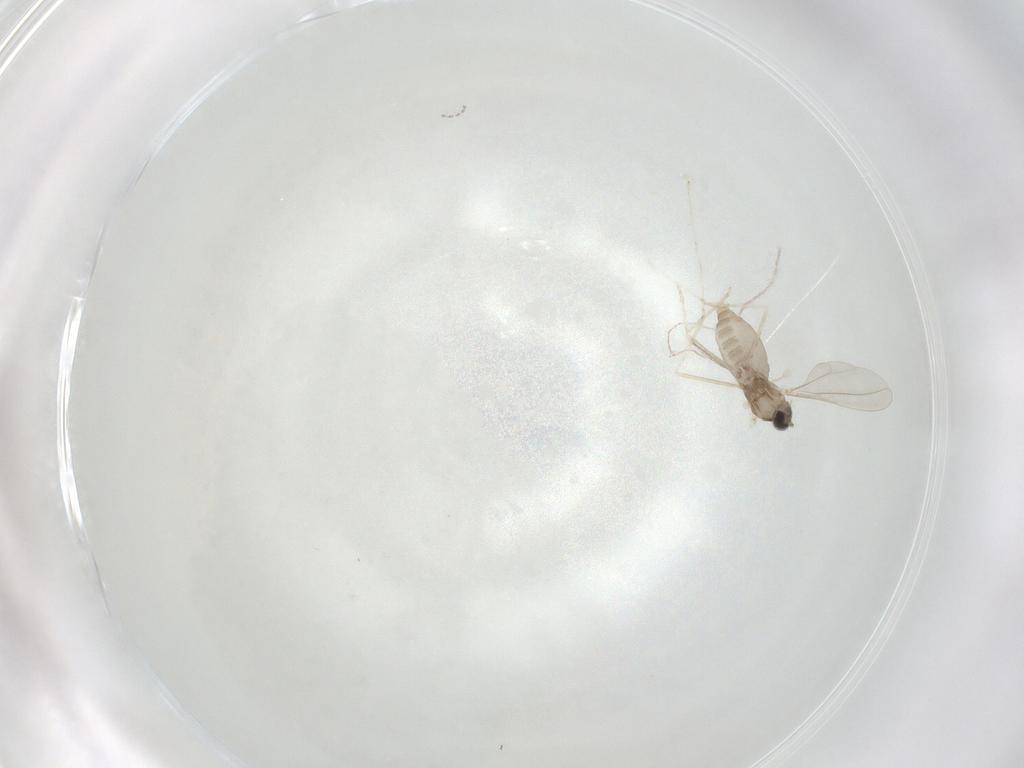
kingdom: Animalia
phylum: Arthropoda
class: Insecta
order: Diptera
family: Cecidomyiidae
